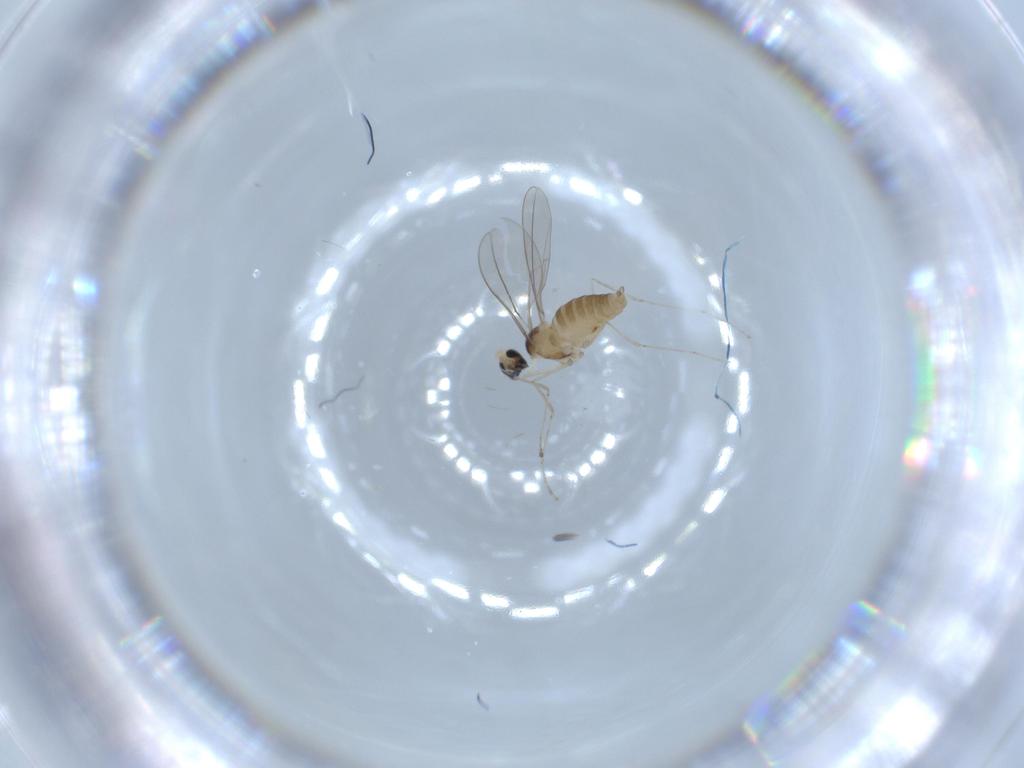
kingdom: Animalia
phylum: Arthropoda
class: Insecta
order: Diptera
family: Cecidomyiidae
